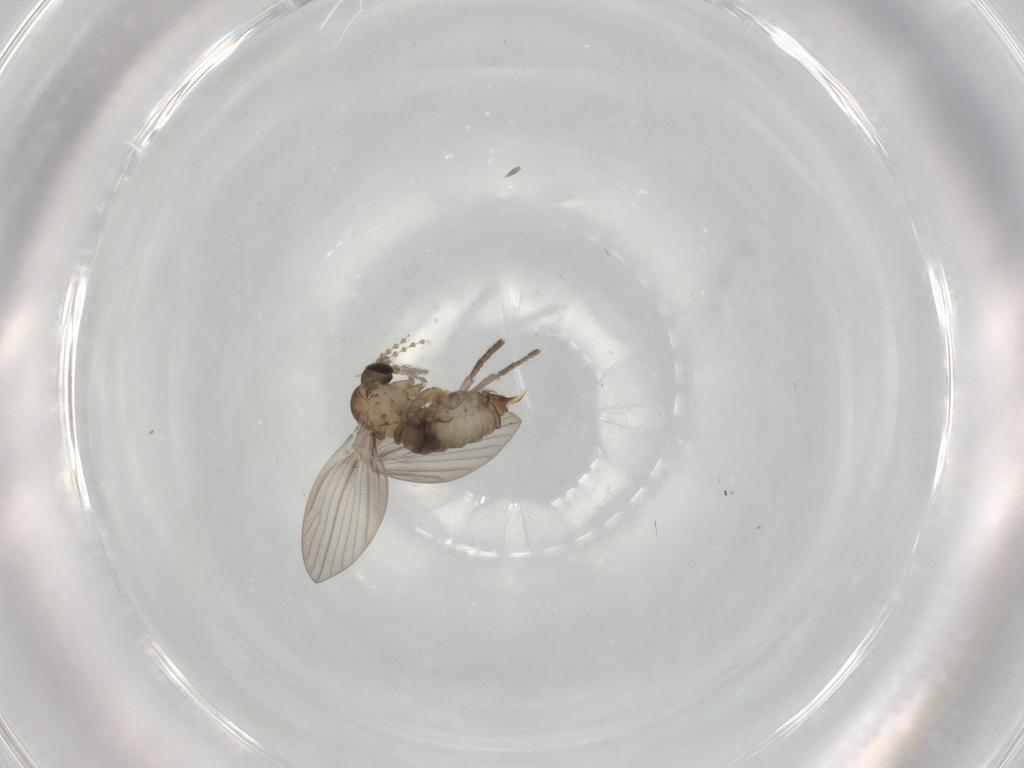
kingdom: Animalia
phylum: Arthropoda
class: Insecta
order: Diptera
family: Psychodidae
